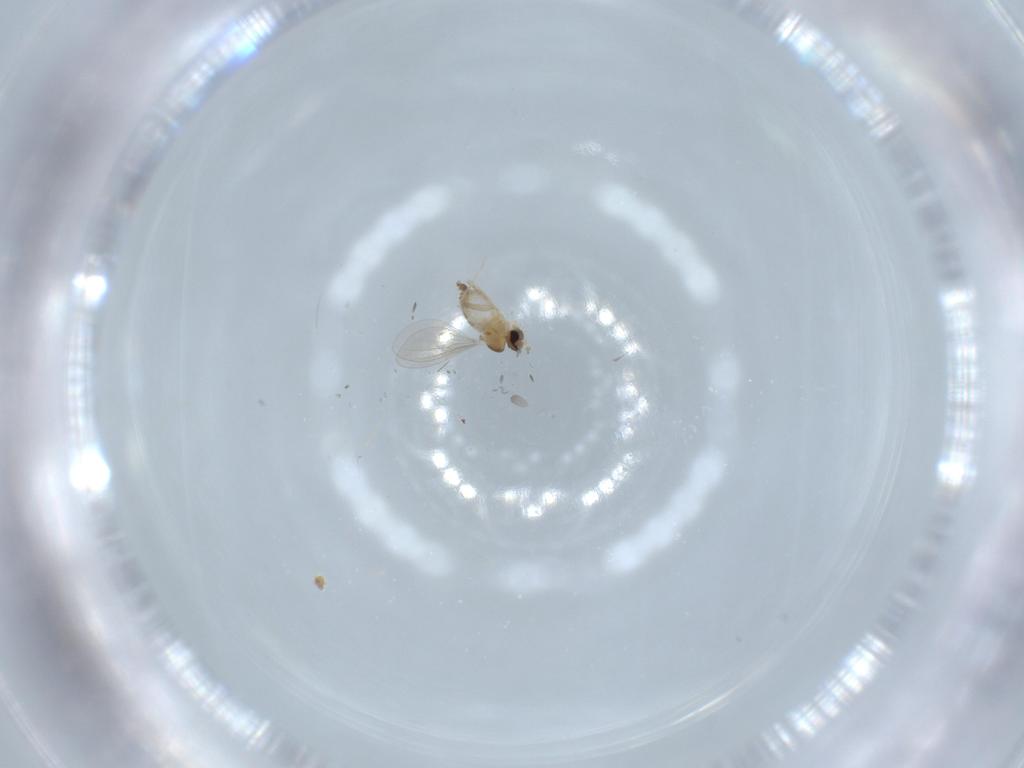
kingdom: Animalia
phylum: Arthropoda
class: Insecta
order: Diptera
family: Cecidomyiidae
